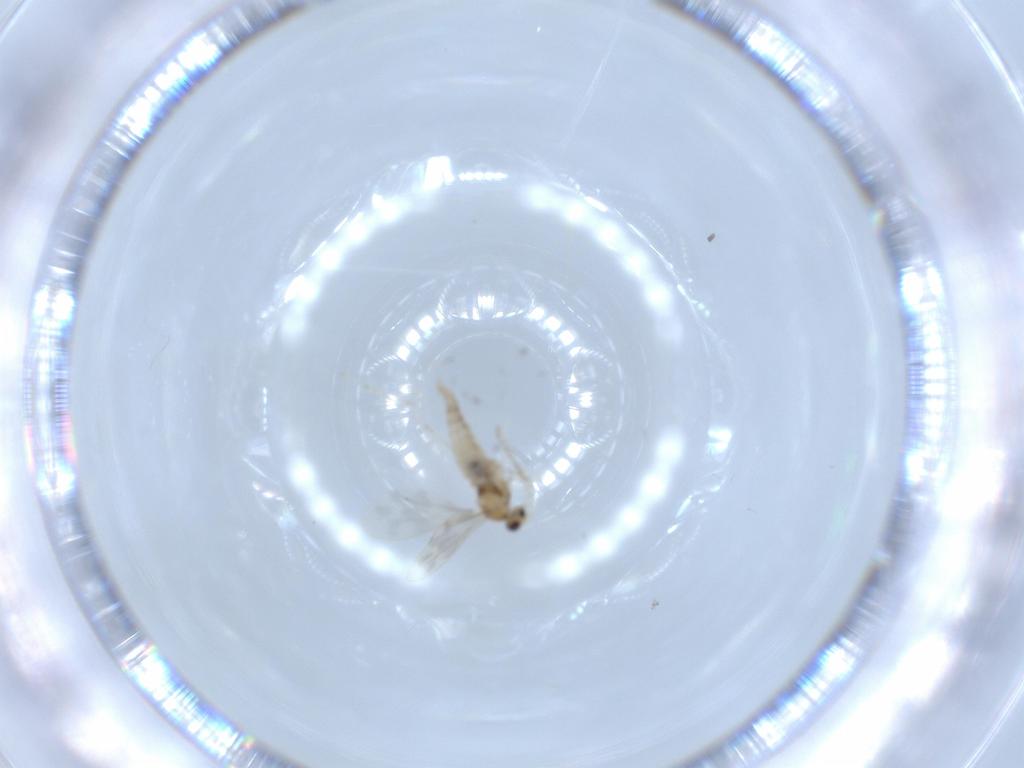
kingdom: Animalia
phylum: Arthropoda
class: Insecta
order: Diptera
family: Cecidomyiidae
